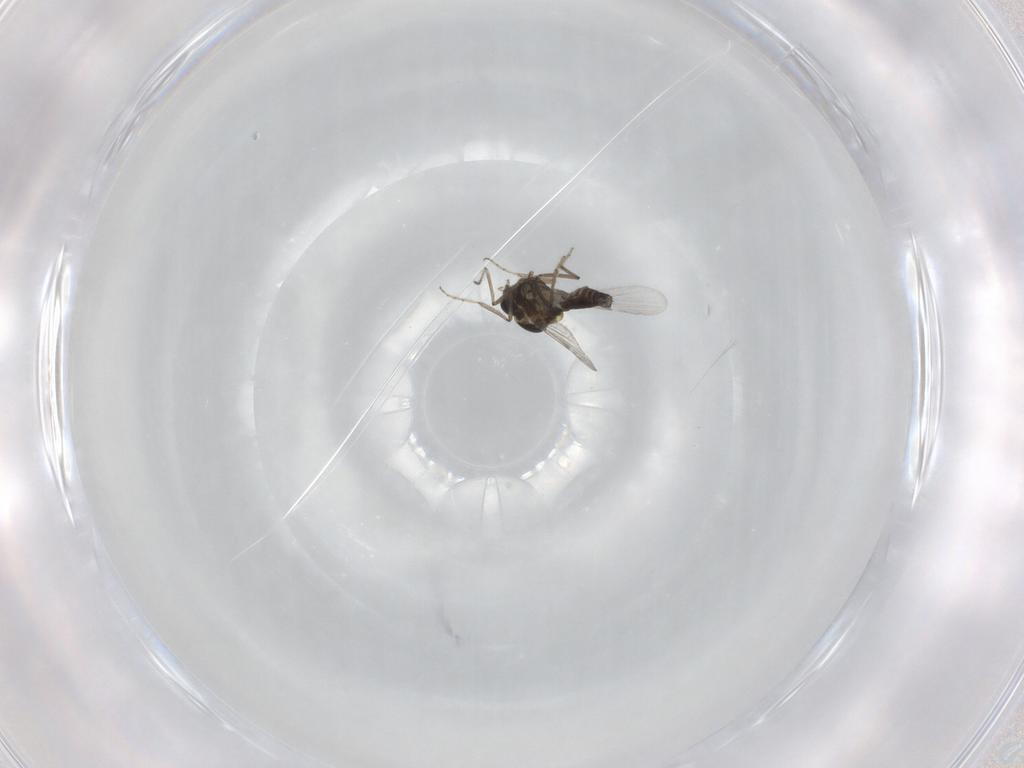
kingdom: Animalia
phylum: Arthropoda
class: Insecta
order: Diptera
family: Ceratopogonidae
